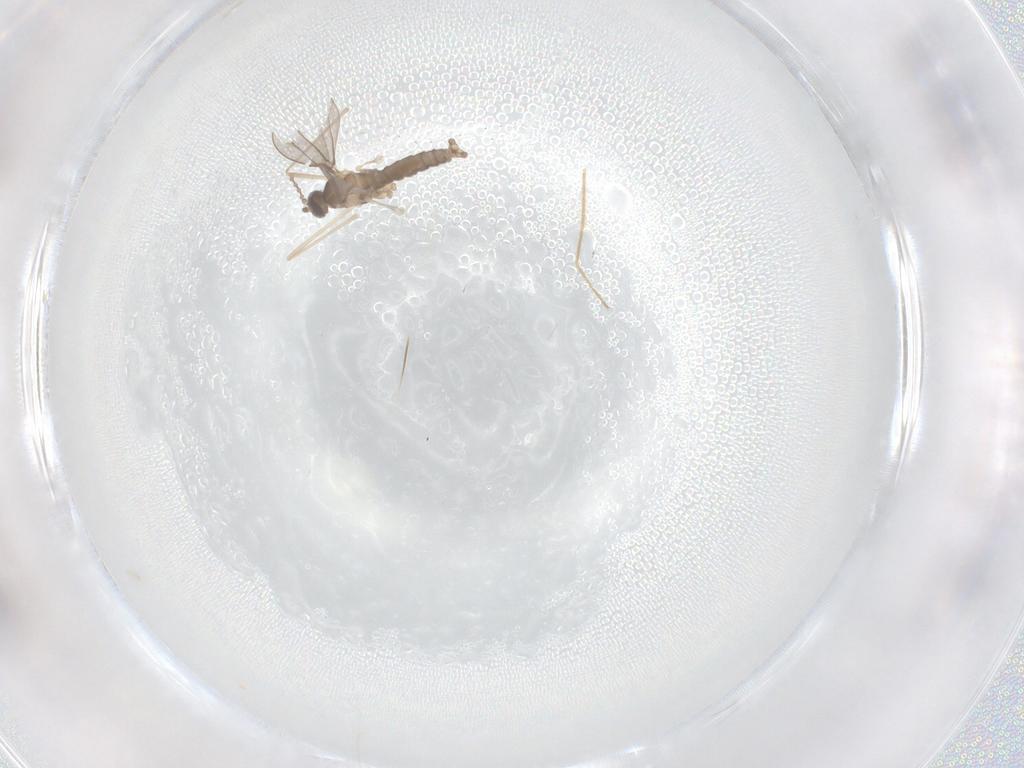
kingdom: Animalia
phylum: Arthropoda
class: Insecta
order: Diptera
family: Cecidomyiidae
